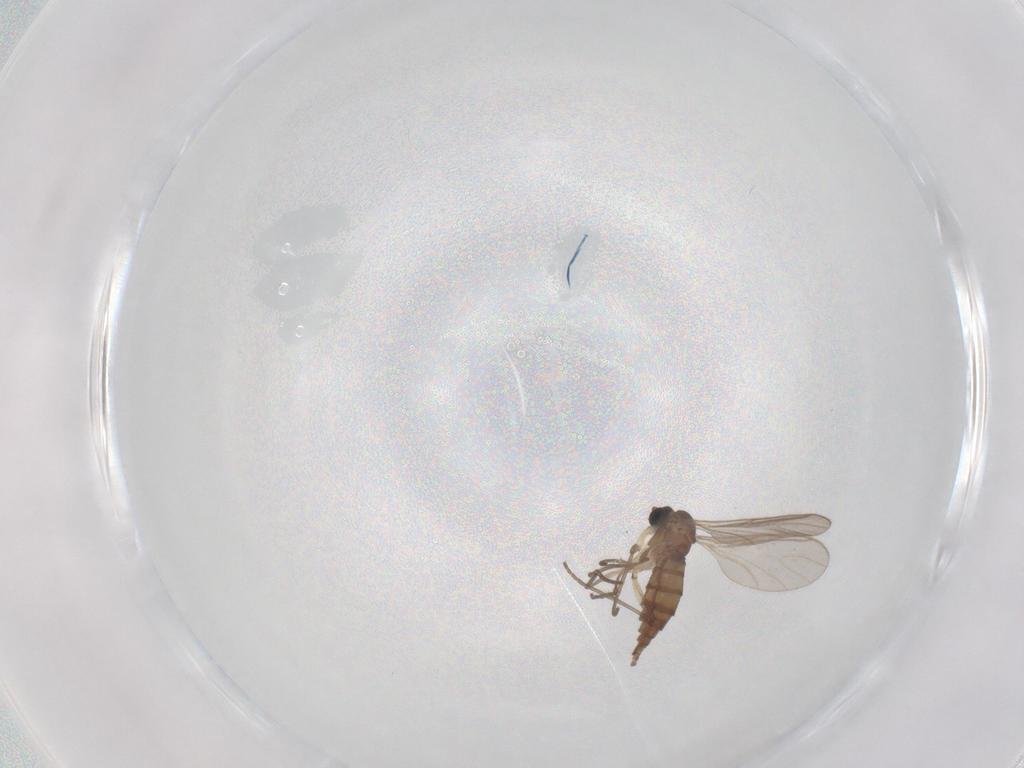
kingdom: Animalia
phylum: Arthropoda
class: Insecta
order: Diptera
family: Sciaridae
